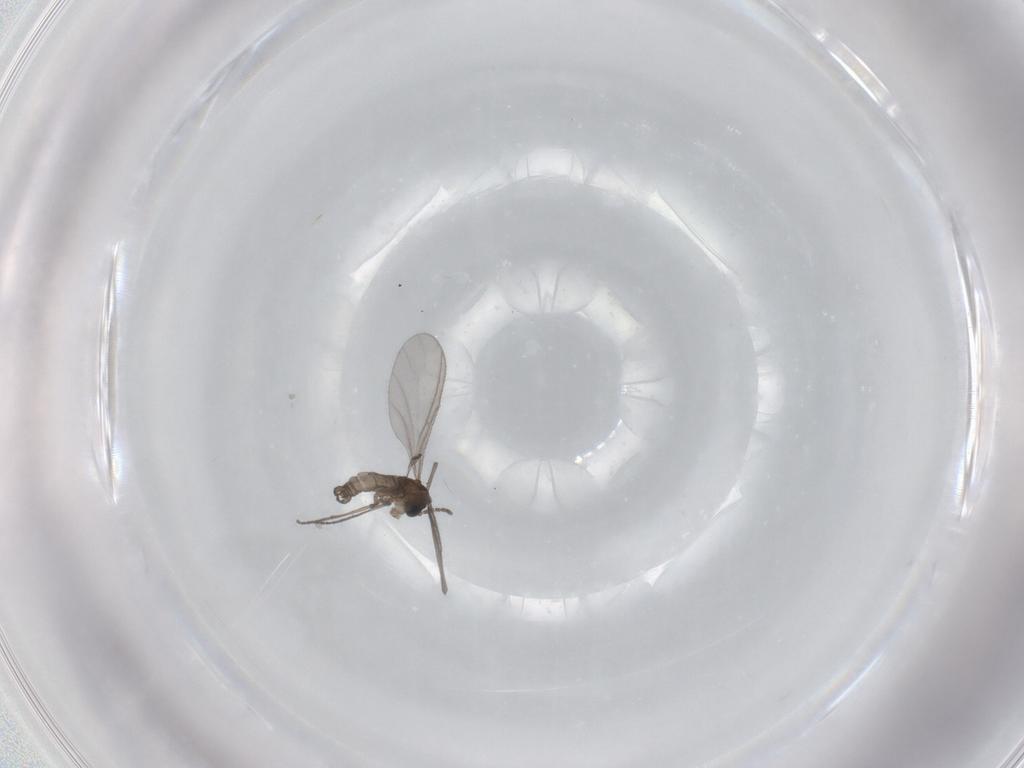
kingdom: Animalia
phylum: Arthropoda
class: Insecta
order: Diptera
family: Sciaridae
